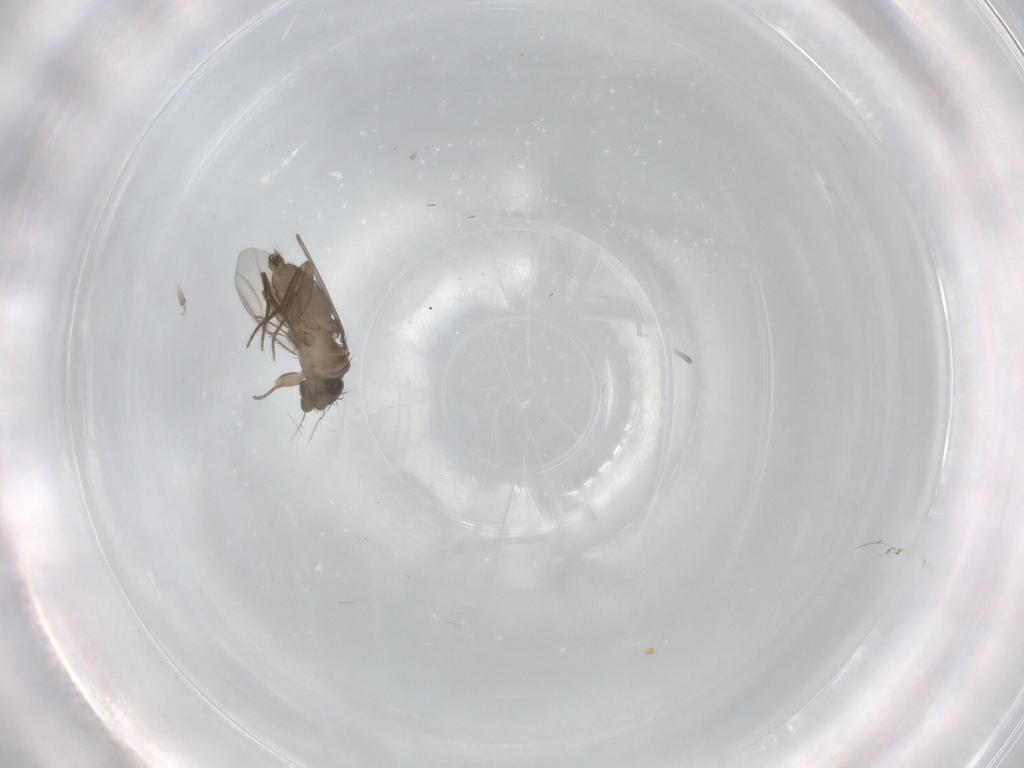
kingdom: Animalia
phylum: Arthropoda
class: Insecta
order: Diptera
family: Phoridae
